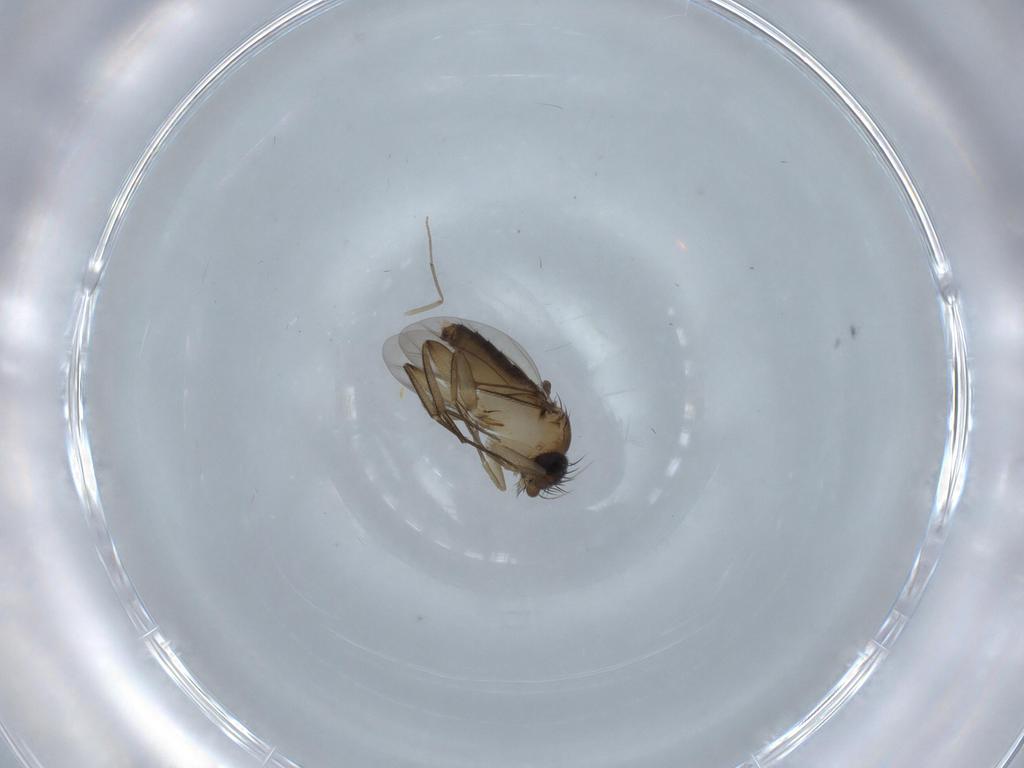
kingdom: Animalia
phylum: Arthropoda
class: Insecta
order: Diptera
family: Phoridae
